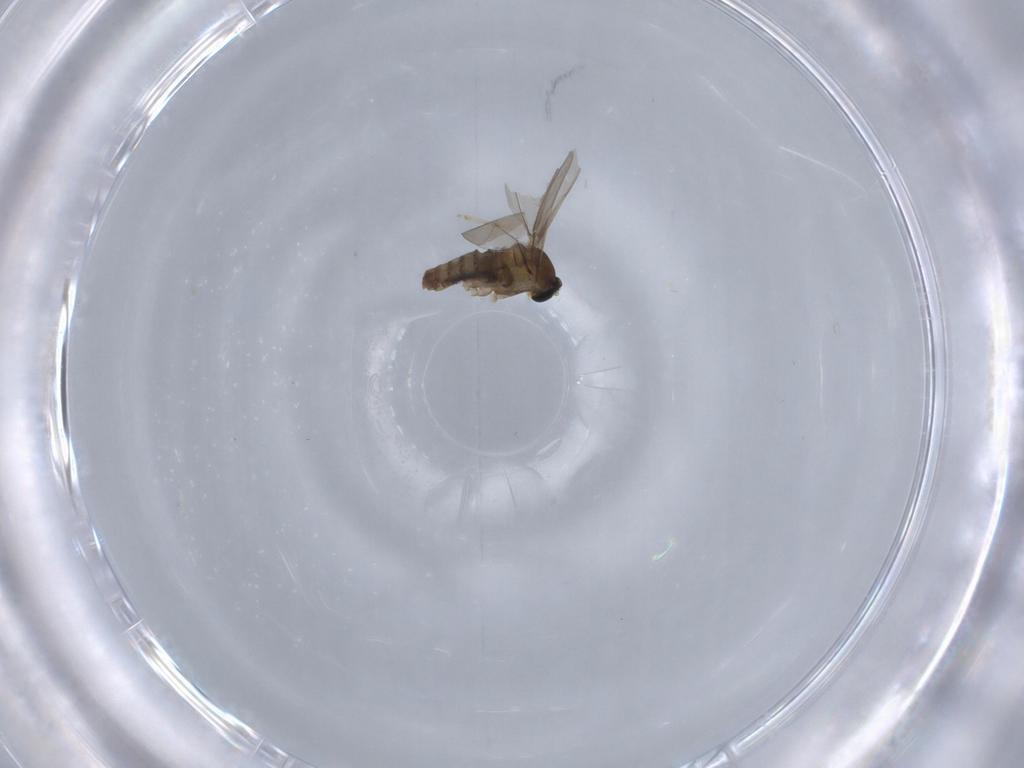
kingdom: Animalia
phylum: Arthropoda
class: Insecta
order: Diptera
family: Cecidomyiidae
